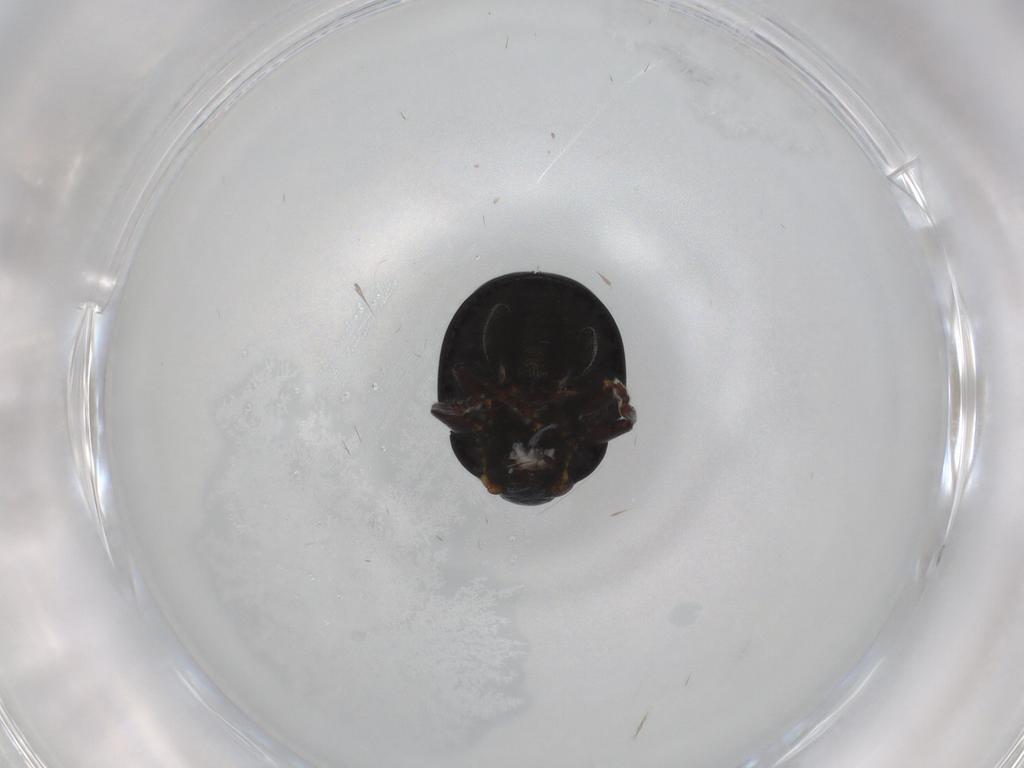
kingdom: Animalia
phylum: Arthropoda
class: Insecta
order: Coleoptera
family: Chrysomelidae
